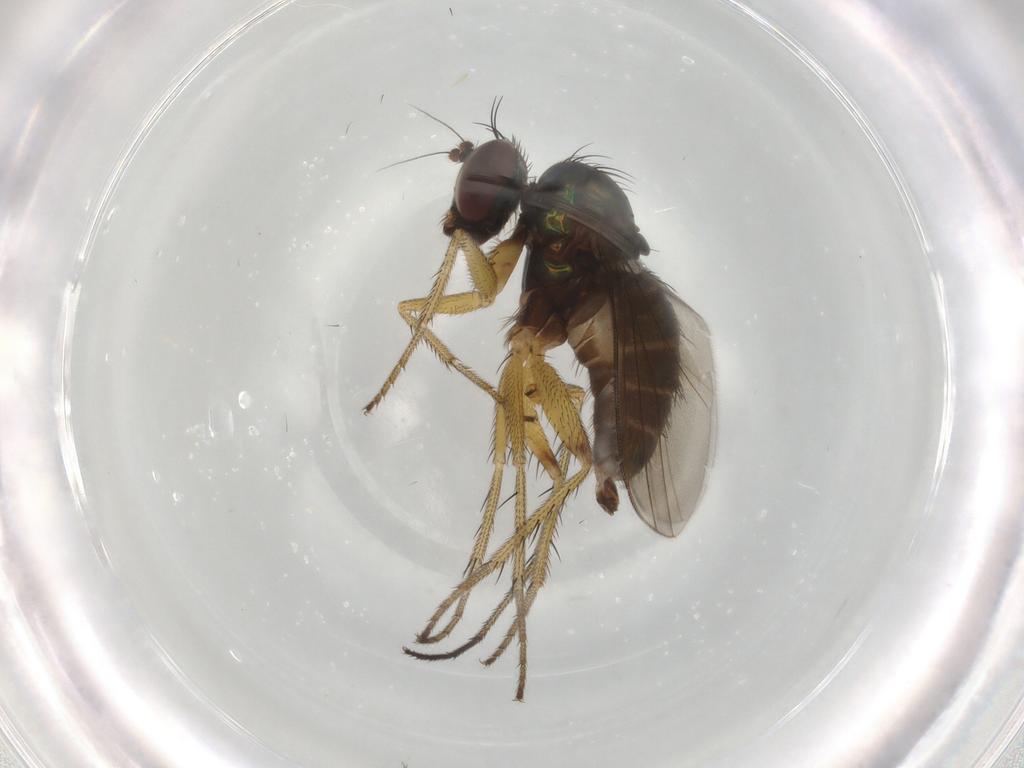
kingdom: Animalia
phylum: Arthropoda
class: Insecta
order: Diptera
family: Dolichopodidae
